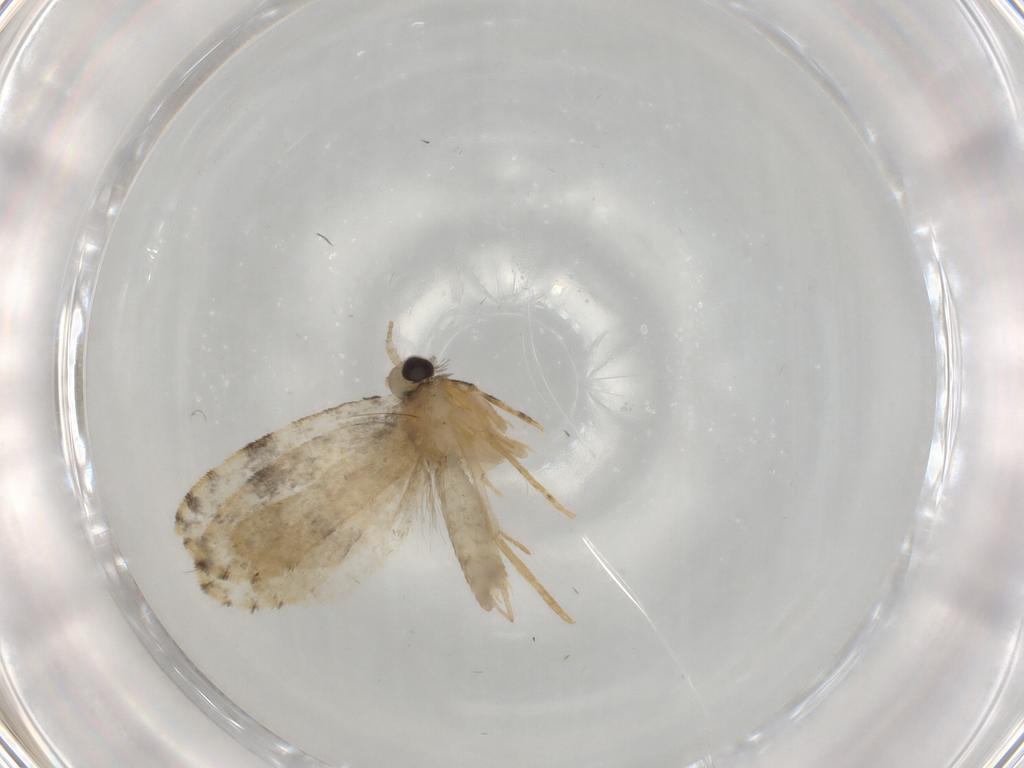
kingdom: Animalia
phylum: Arthropoda
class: Insecta
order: Lepidoptera
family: Psychidae
